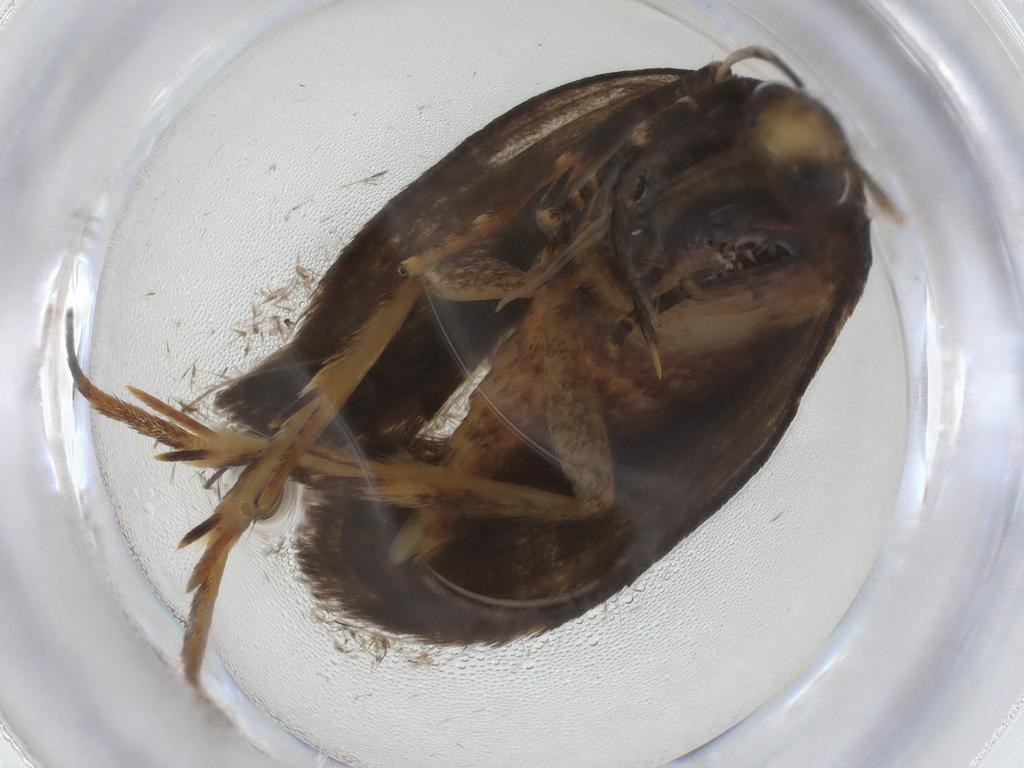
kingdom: Animalia
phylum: Arthropoda
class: Insecta
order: Lepidoptera
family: Autostichidae
